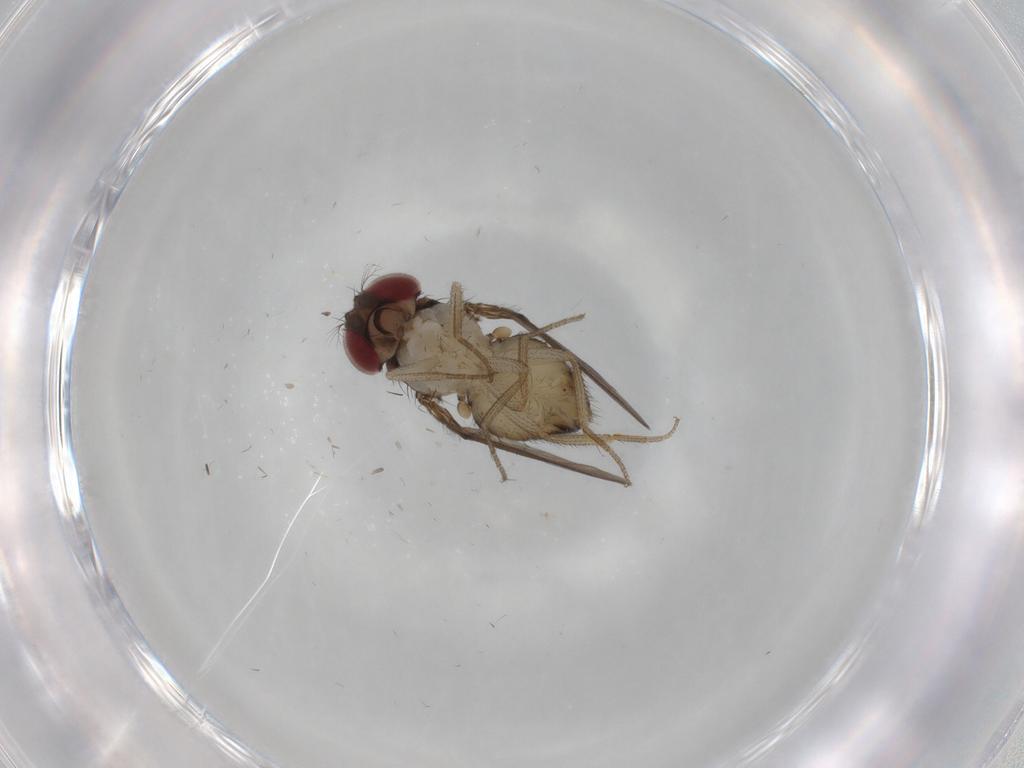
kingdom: Animalia
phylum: Arthropoda
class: Insecta
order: Diptera
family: Drosophilidae
